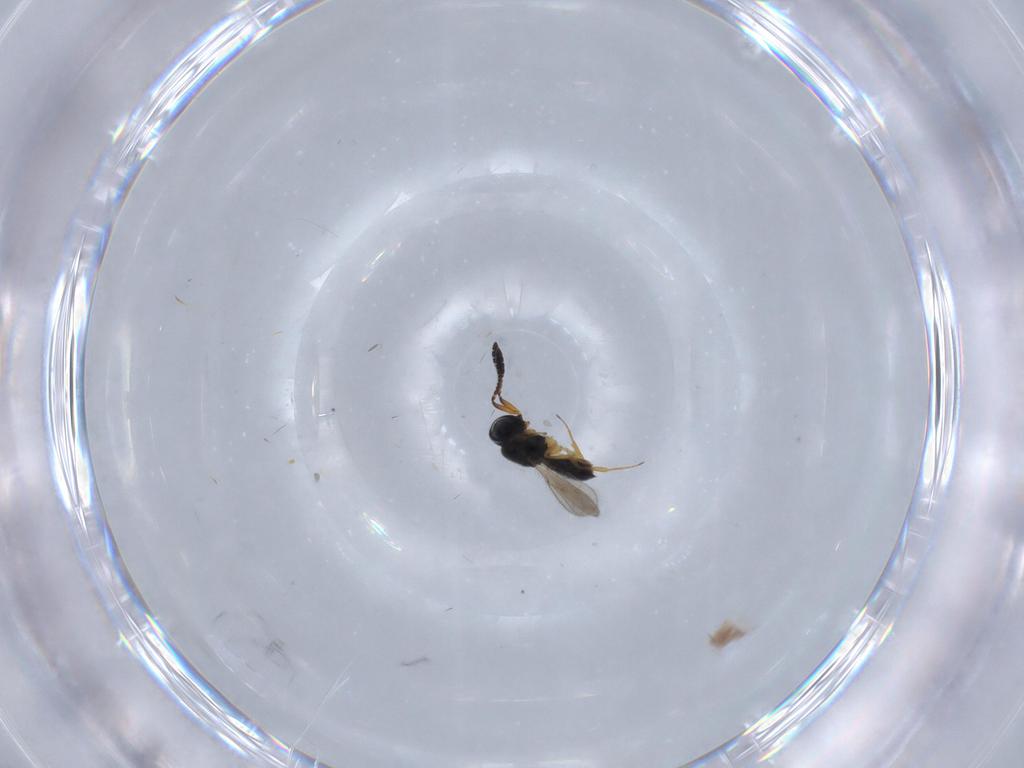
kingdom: Animalia
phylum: Arthropoda
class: Insecta
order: Hymenoptera
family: Scelionidae
